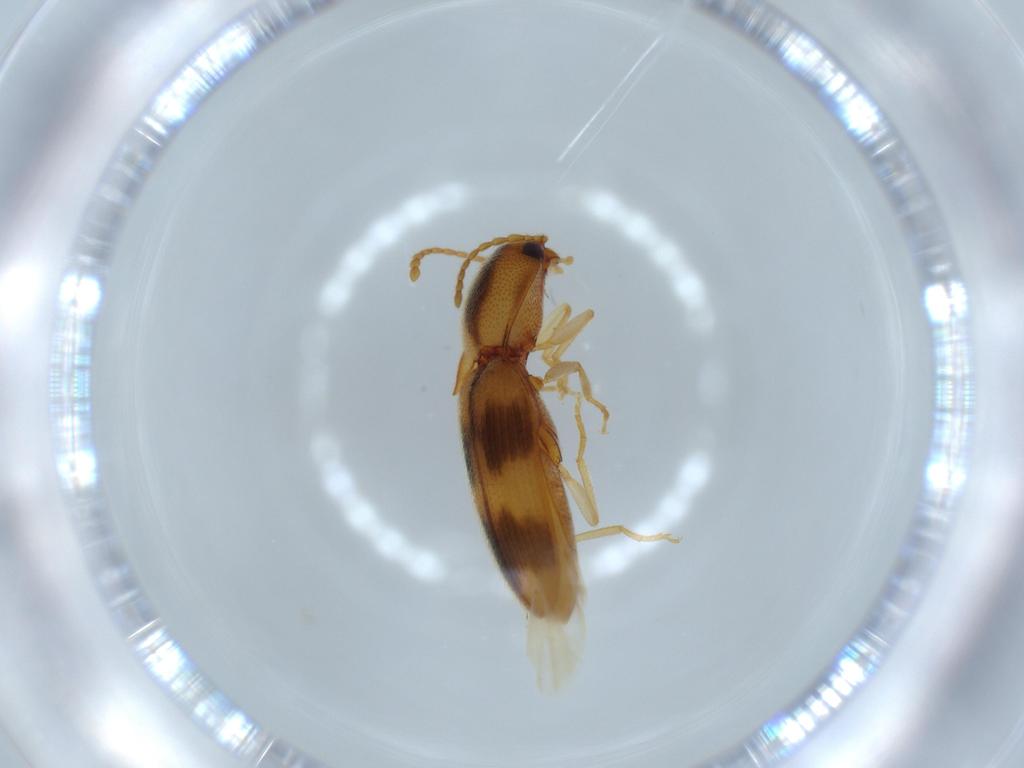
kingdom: Animalia
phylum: Arthropoda
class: Insecta
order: Coleoptera
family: Elateridae
